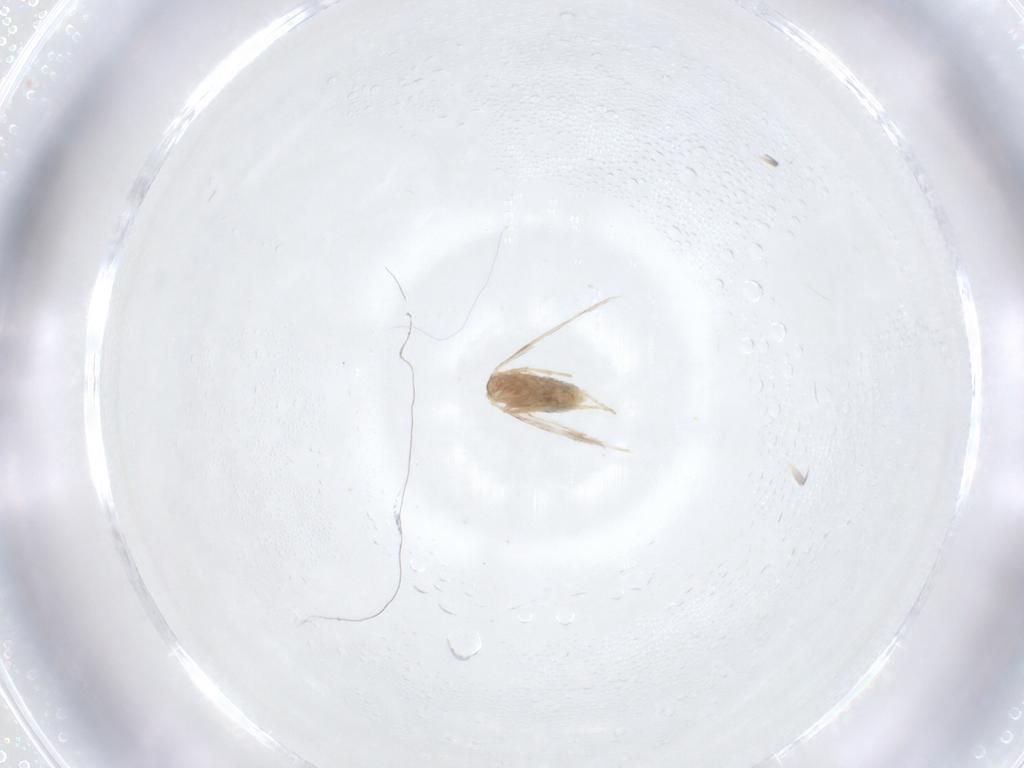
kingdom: Animalia
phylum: Arthropoda
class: Insecta
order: Lepidoptera
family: Nepticulidae
